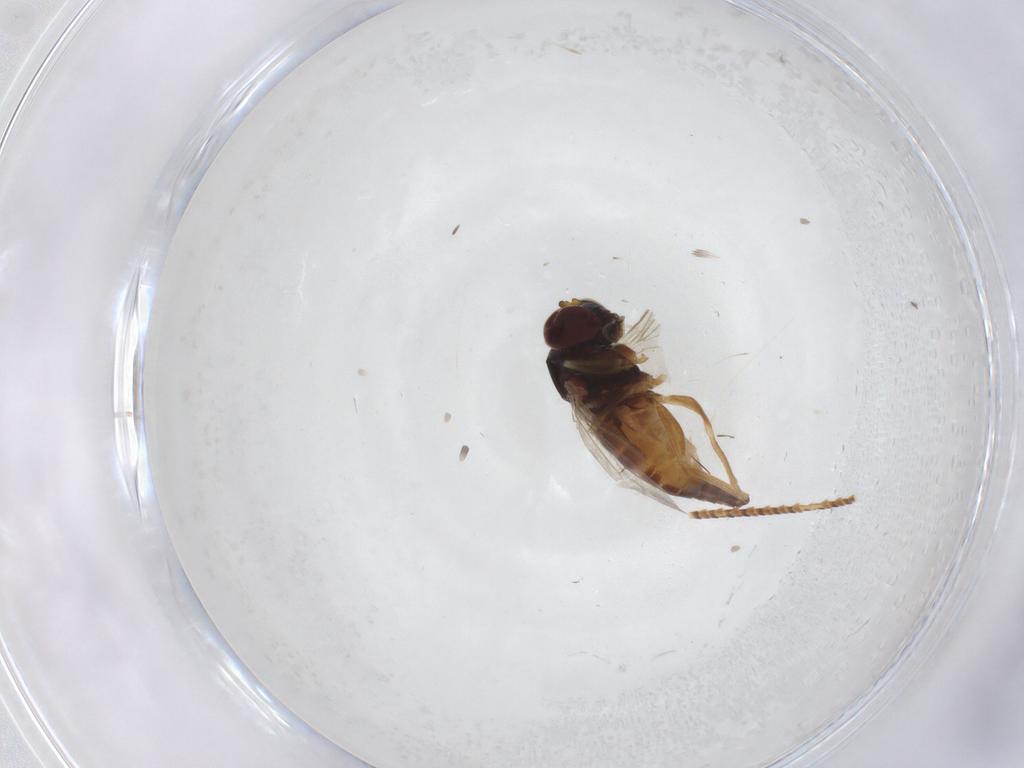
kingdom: Animalia
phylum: Arthropoda
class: Insecta
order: Diptera
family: Dolichopodidae
